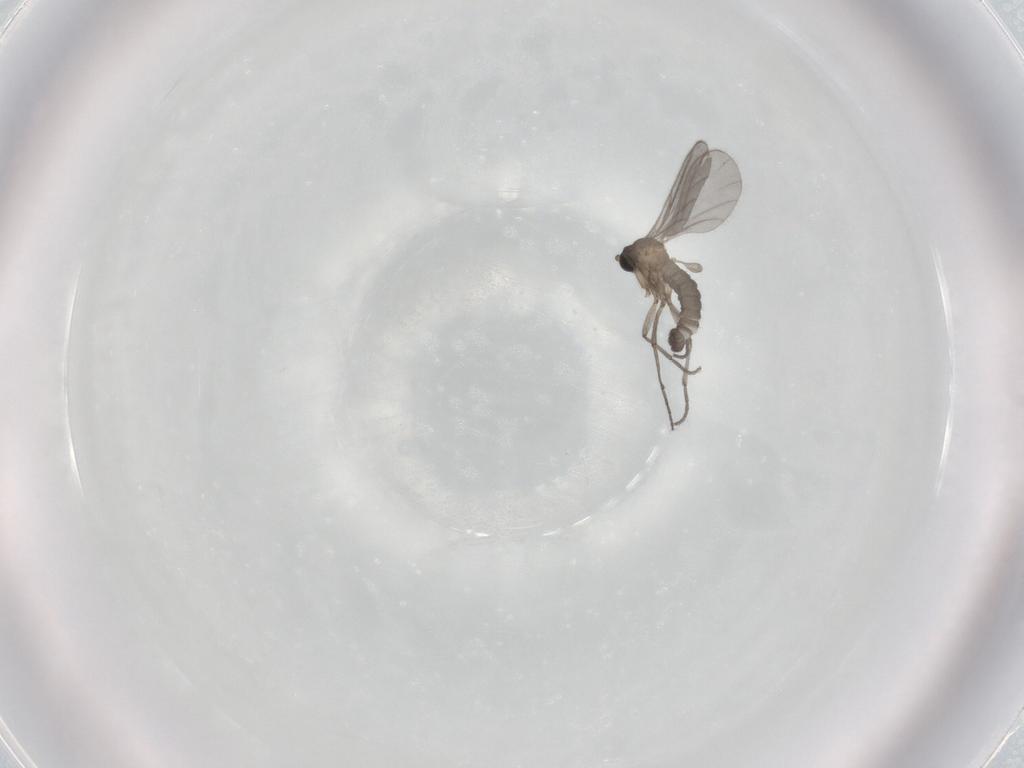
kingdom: Animalia
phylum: Arthropoda
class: Insecta
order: Diptera
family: Sciaridae
